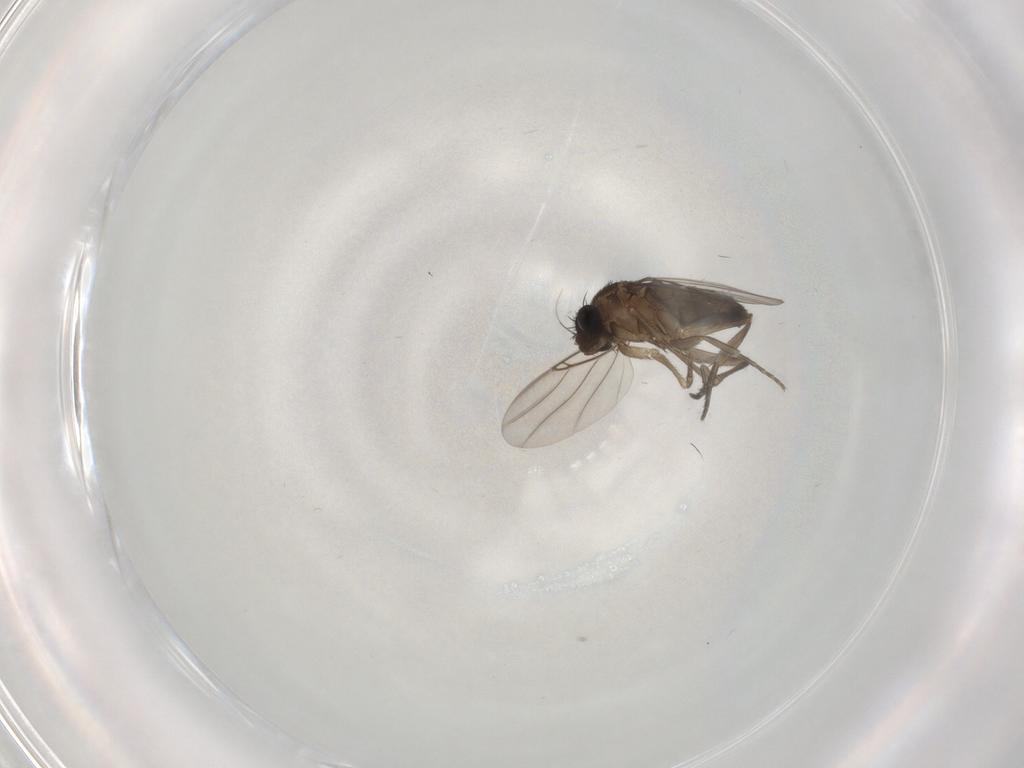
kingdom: Animalia
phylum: Arthropoda
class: Insecta
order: Diptera
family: Phoridae
